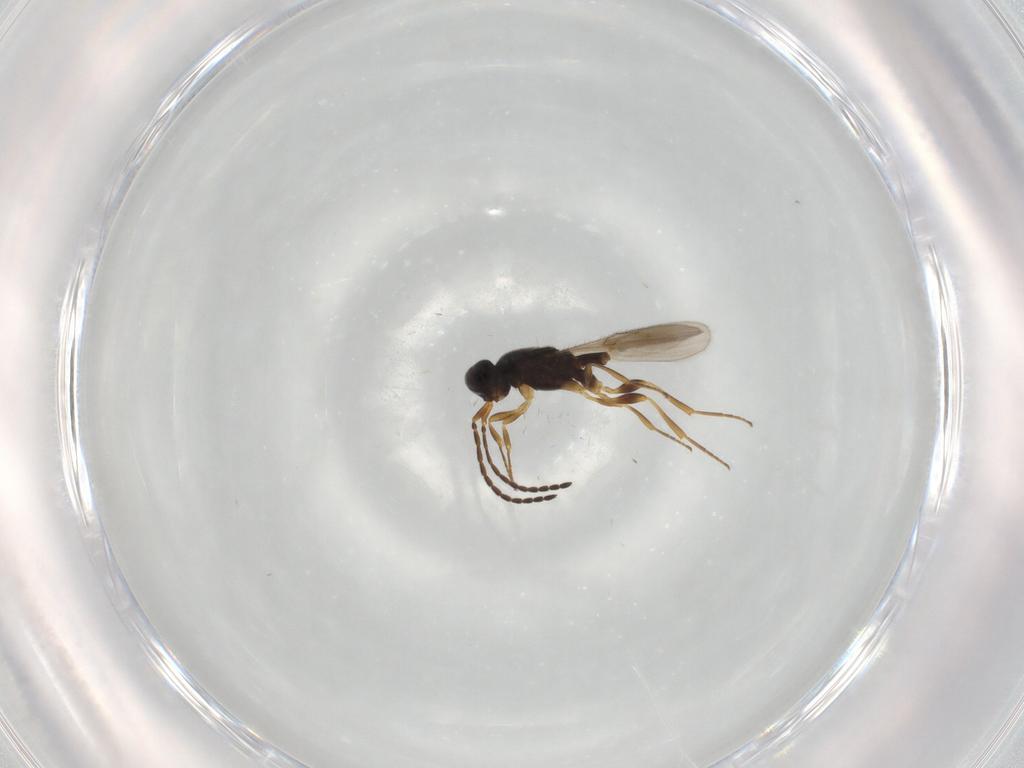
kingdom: Animalia
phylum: Arthropoda
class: Insecta
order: Hymenoptera
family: Scelionidae
